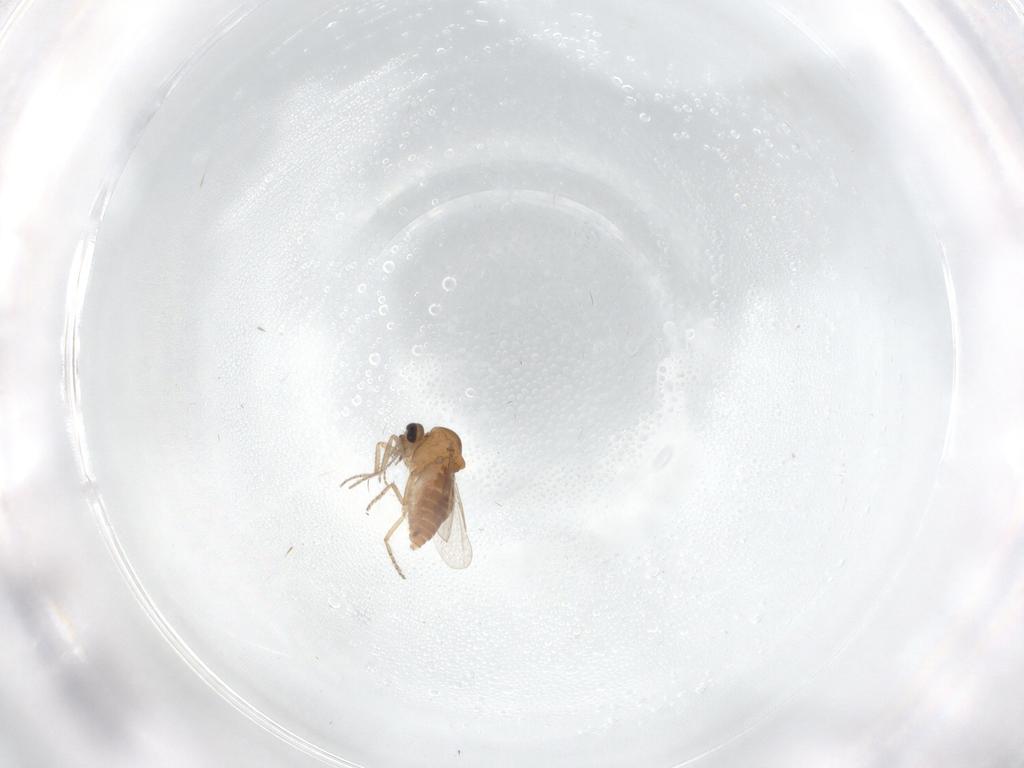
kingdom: Animalia
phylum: Arthropoda
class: Insecta
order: Diptera
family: Ceratopogonidae
